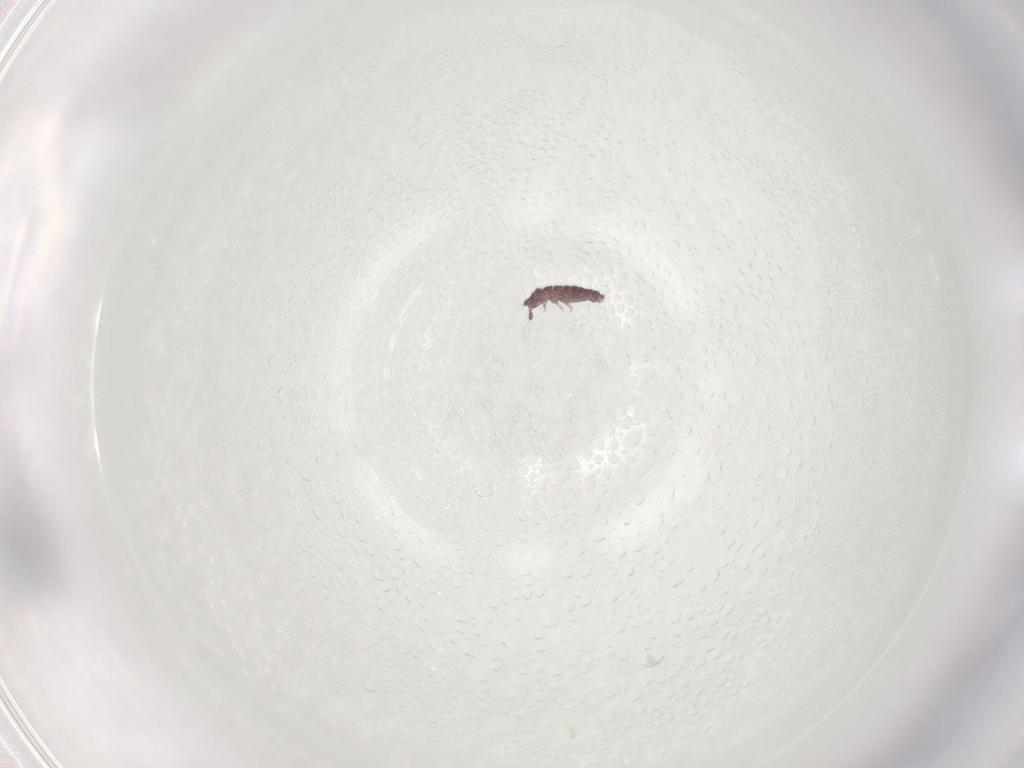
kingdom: Animalia
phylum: Arthropoda
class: Collembola
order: Poduromorpha
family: Hypogastruridae
